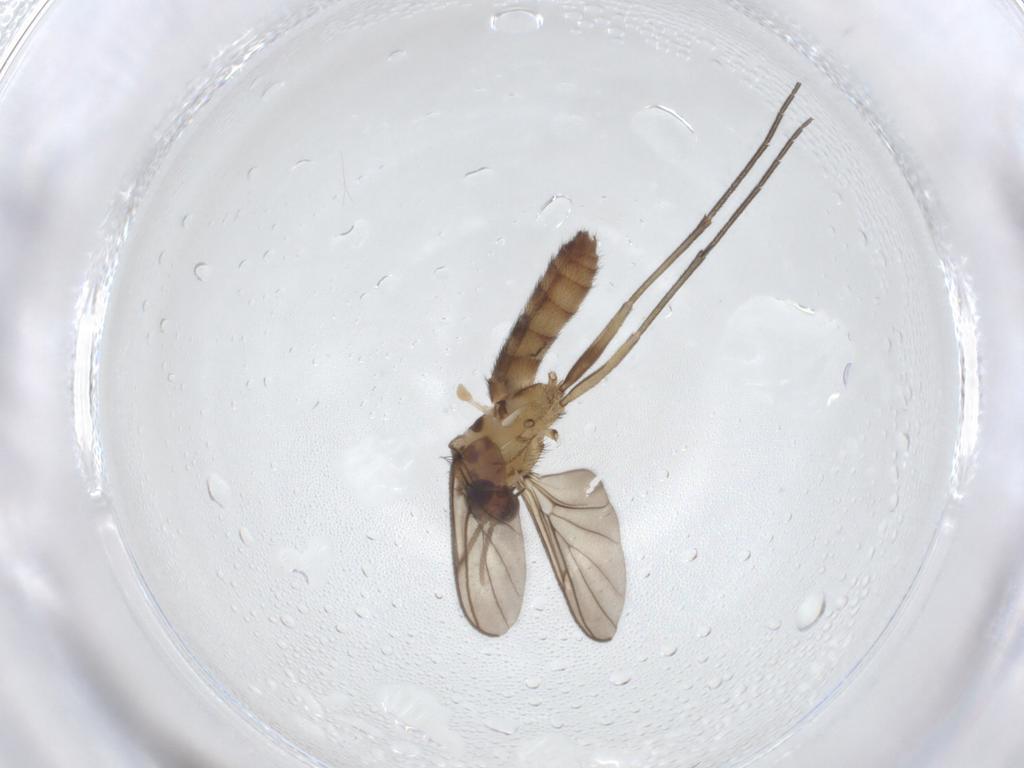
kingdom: Animalia
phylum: Arthropoda
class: Insecta
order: Diptera
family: Keroplatidae
